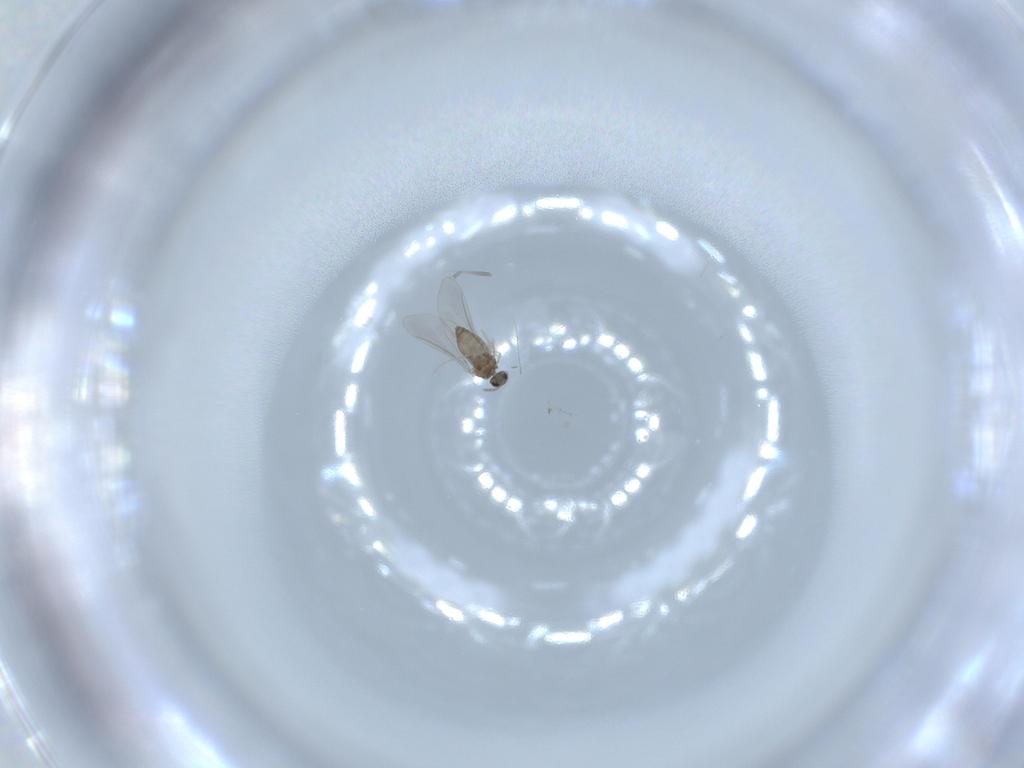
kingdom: Animalia
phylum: Arthropoda
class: Insecta
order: Diptera
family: Cecidomyiidae
